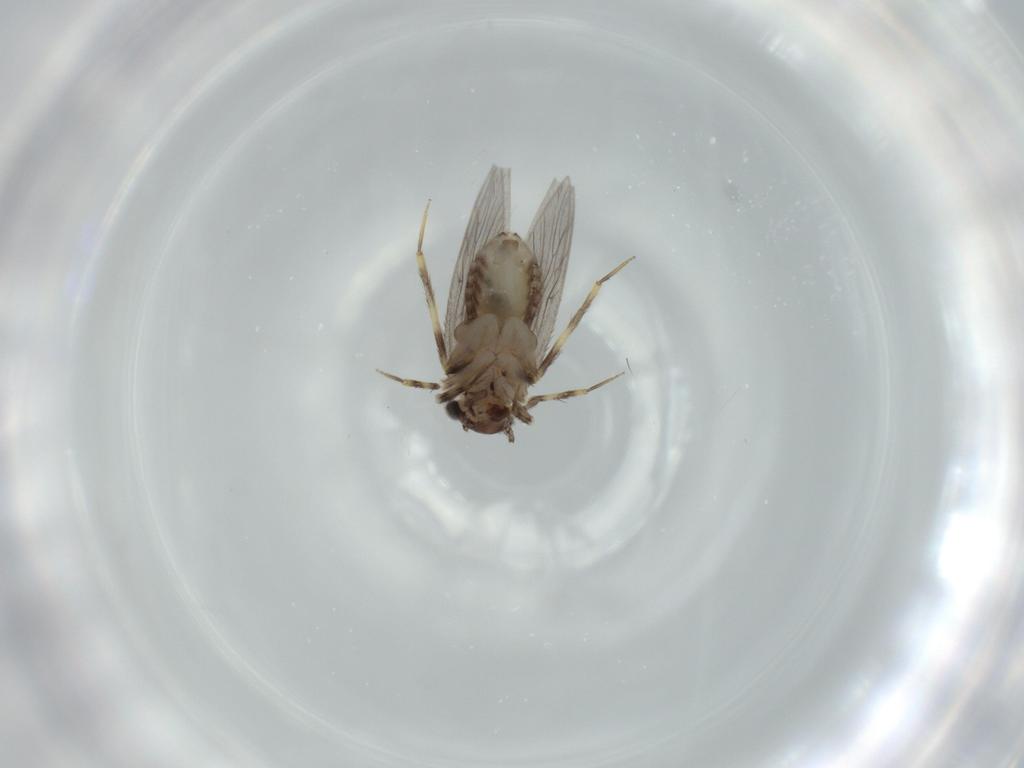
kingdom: Animalia
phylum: Arthropoda
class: Insecta
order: Psocodea
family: Lepidopsocidae
